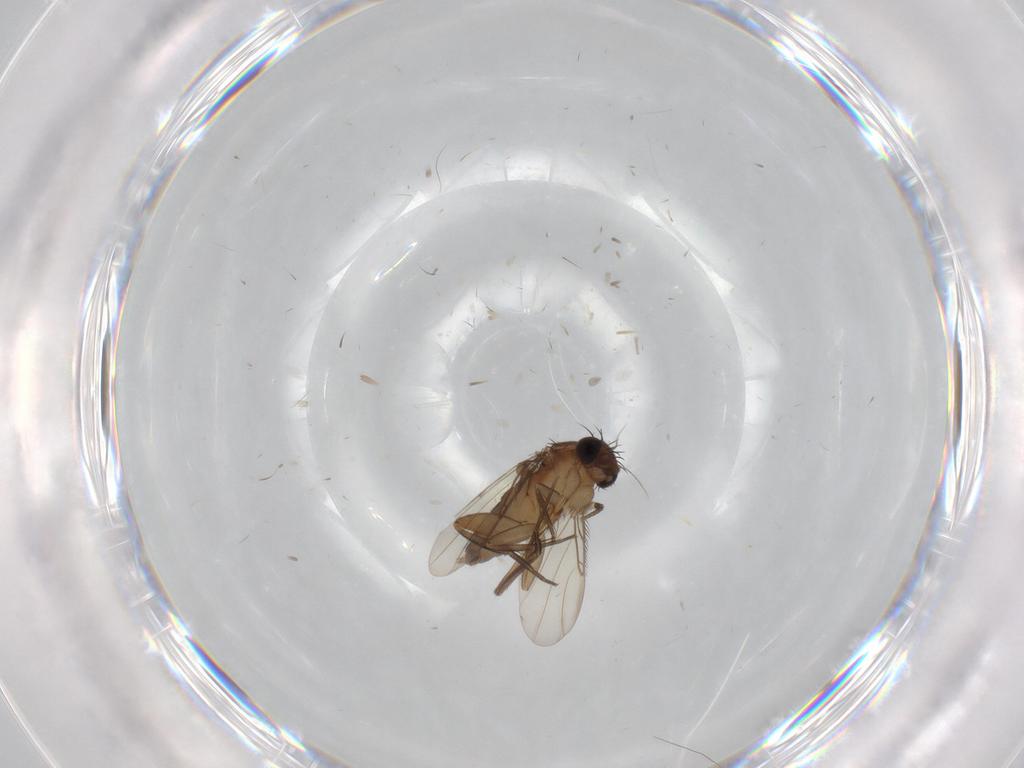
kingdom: Animalia
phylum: Arthropoda
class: Insecta
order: Diptera
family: Phoridae
